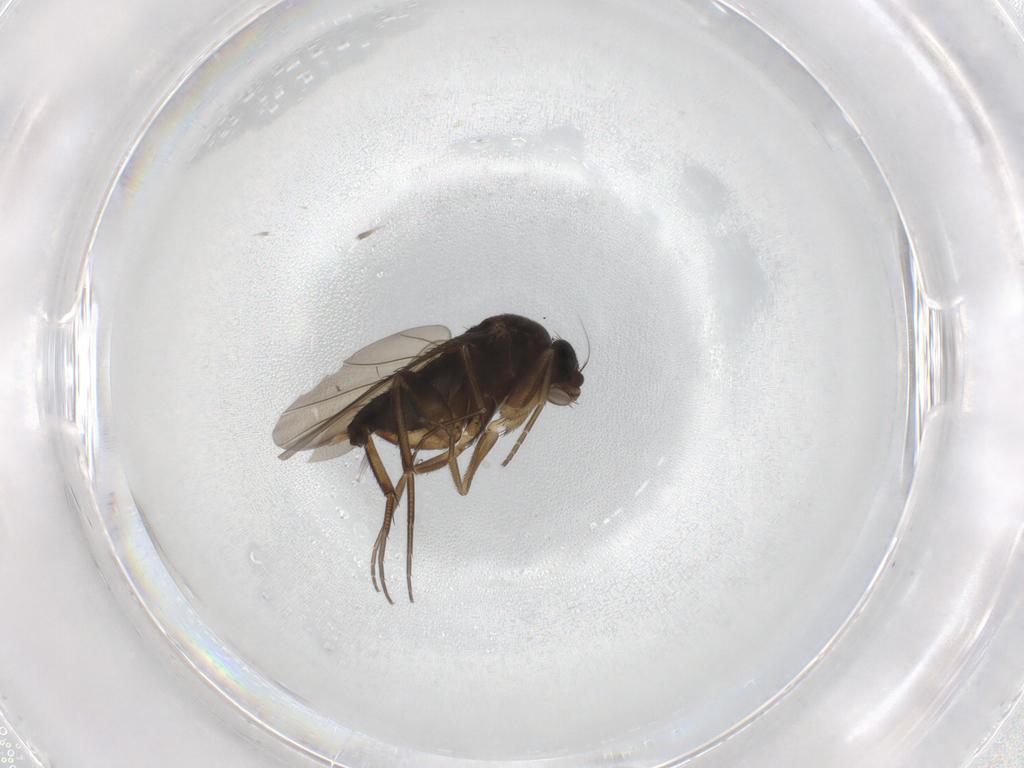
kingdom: Animalia
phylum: Arthropoda
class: Insecta
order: Diptera
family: Phoridae
